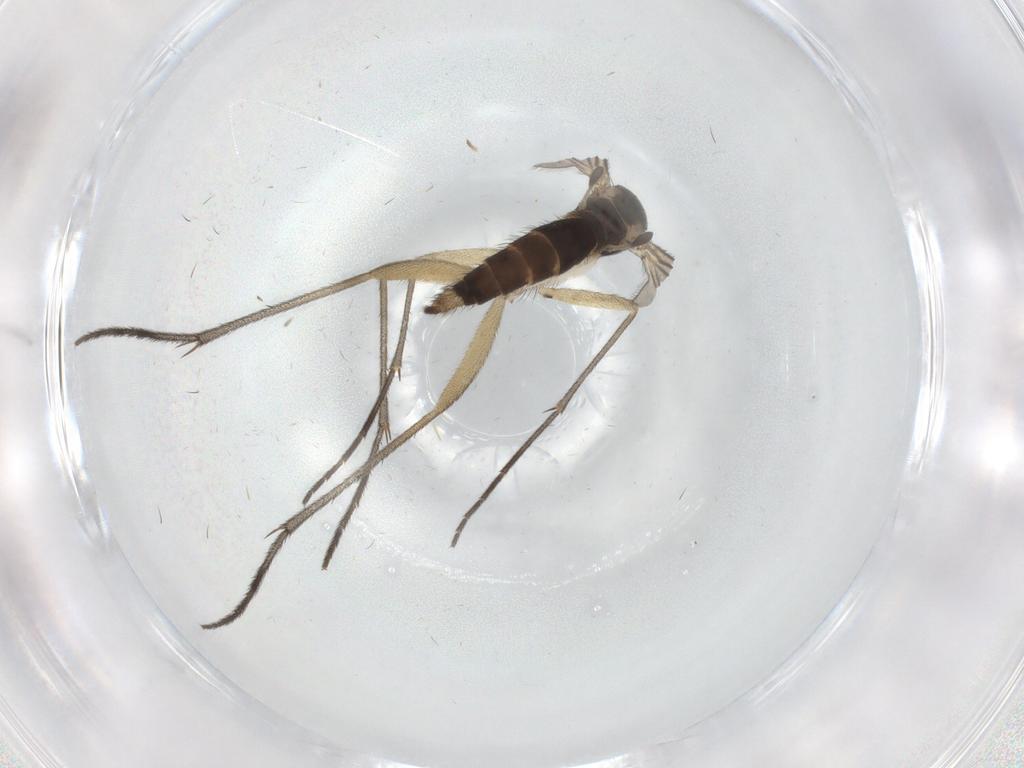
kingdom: Animalia
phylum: Arthropoda
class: Insecta
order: Diptera
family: Sciaridae
